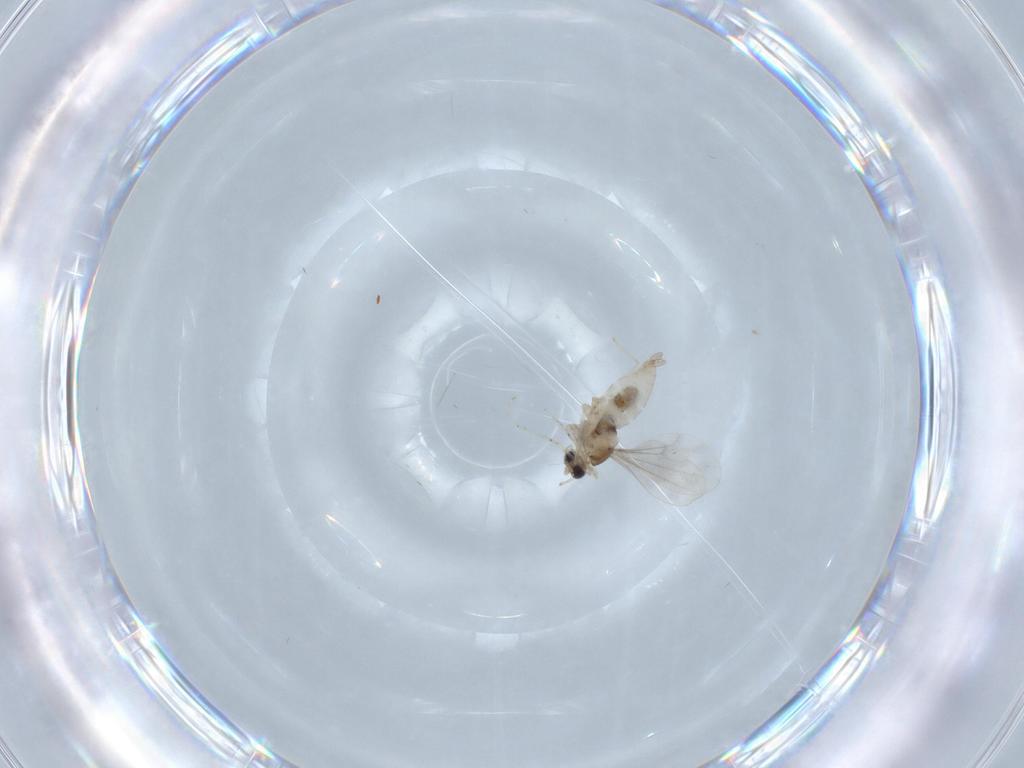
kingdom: Animalia
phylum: Arthropoda
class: Insecta
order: Diptera
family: Cecidomyiidae
